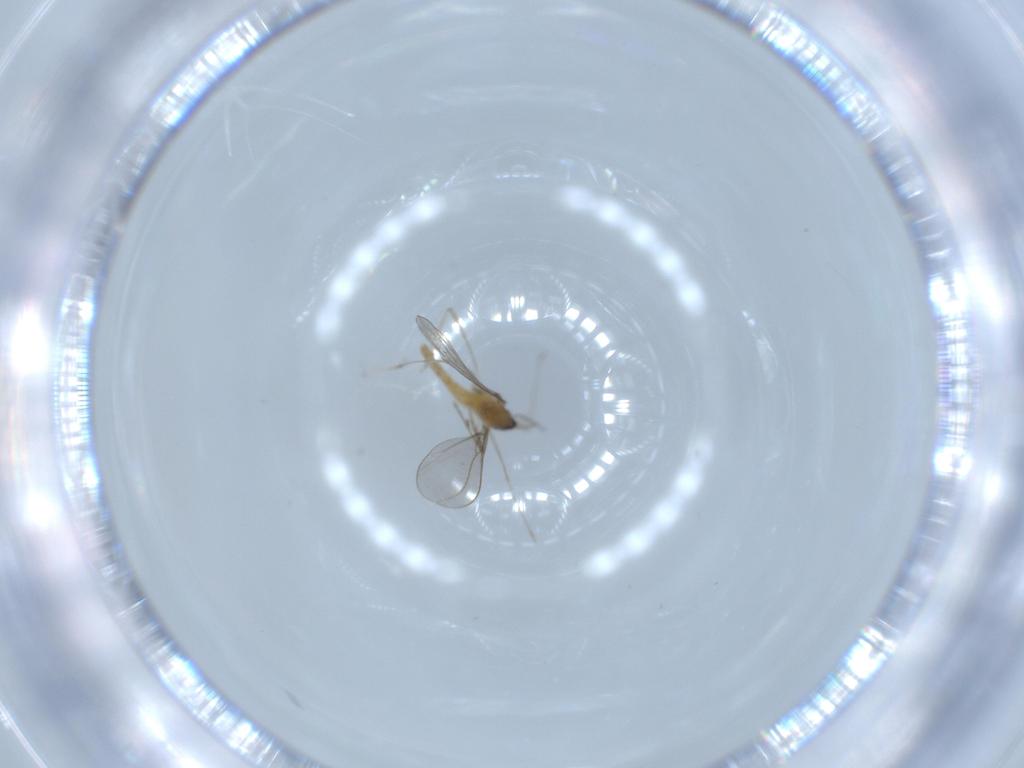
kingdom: Animalia
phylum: Arthropoda
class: Insecta
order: Diptera
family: Cecidomyiidae
